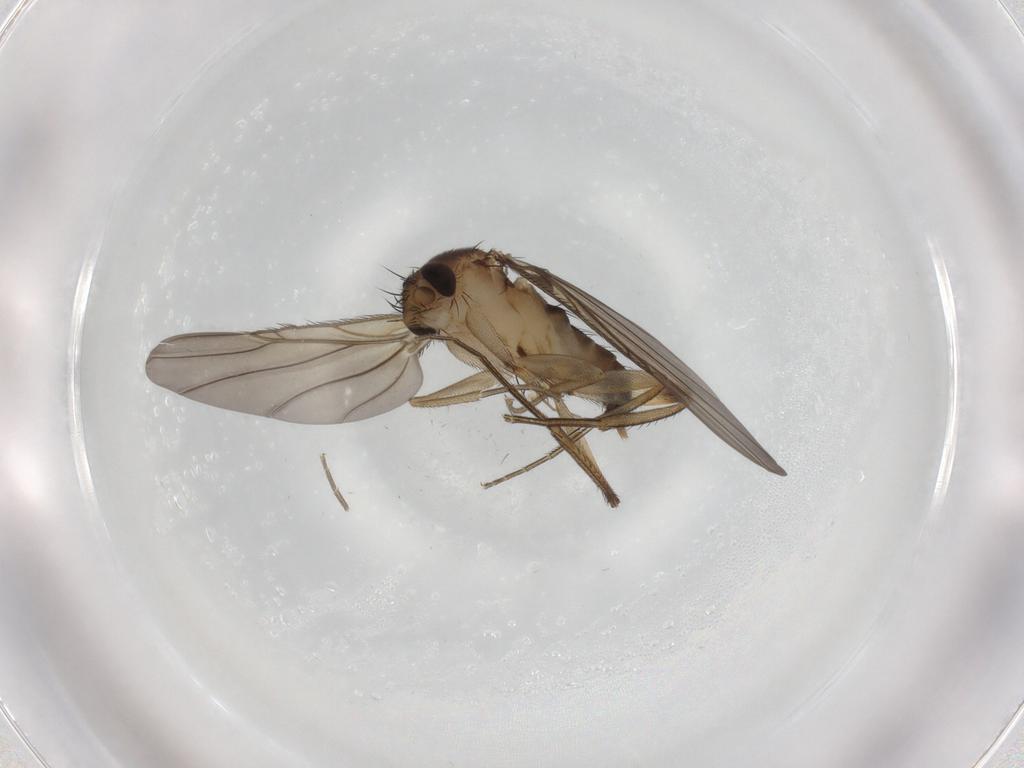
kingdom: Animalia
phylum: Arthropoda
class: Insecta
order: Diptera
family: Phoridae
